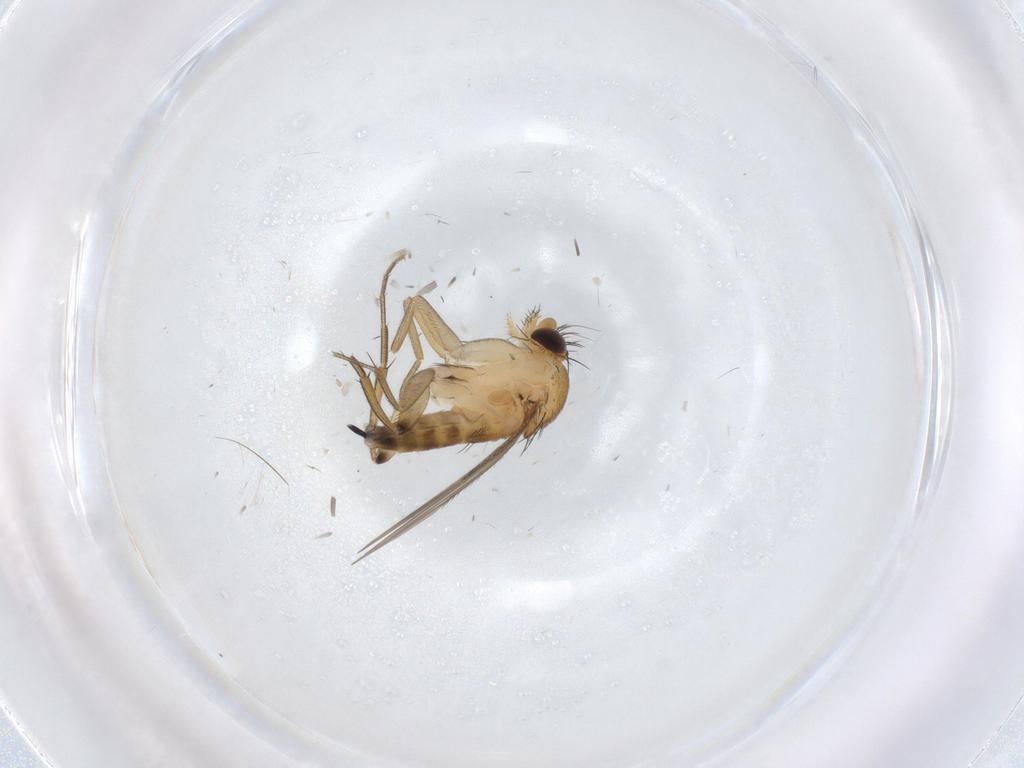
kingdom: Animalia
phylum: Arthropoda
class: Insecta
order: Diptera
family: Phoridae
